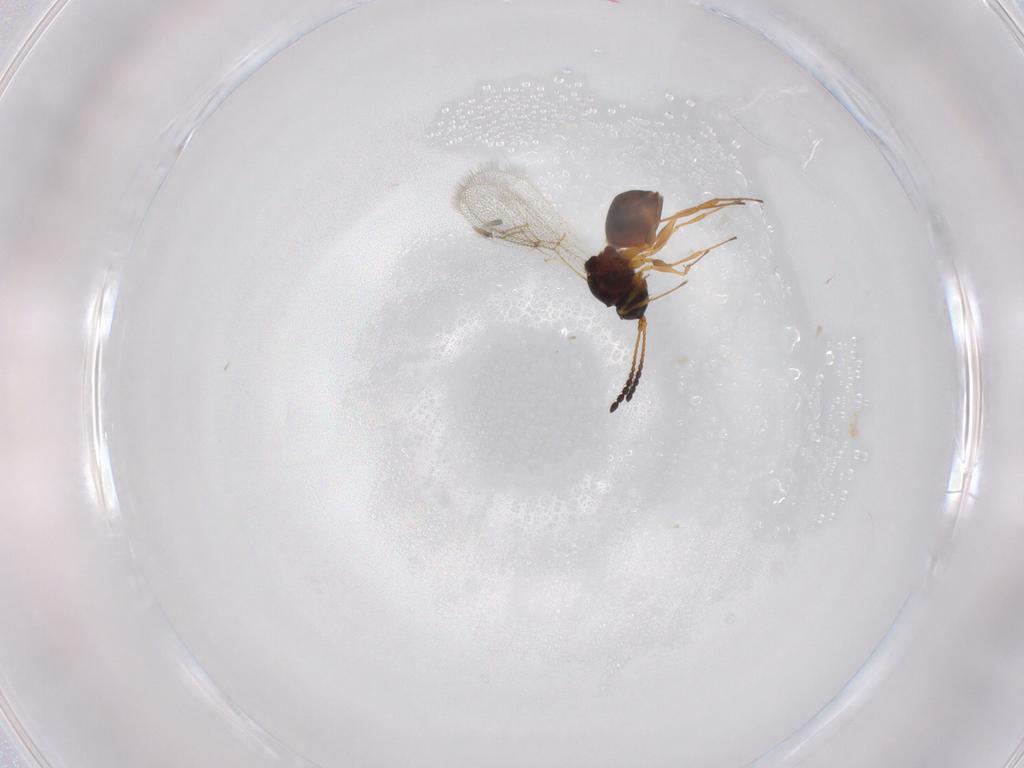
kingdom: Animalia
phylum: Arthropoda
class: Insecta
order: Hymenoptera
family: Figitidae
